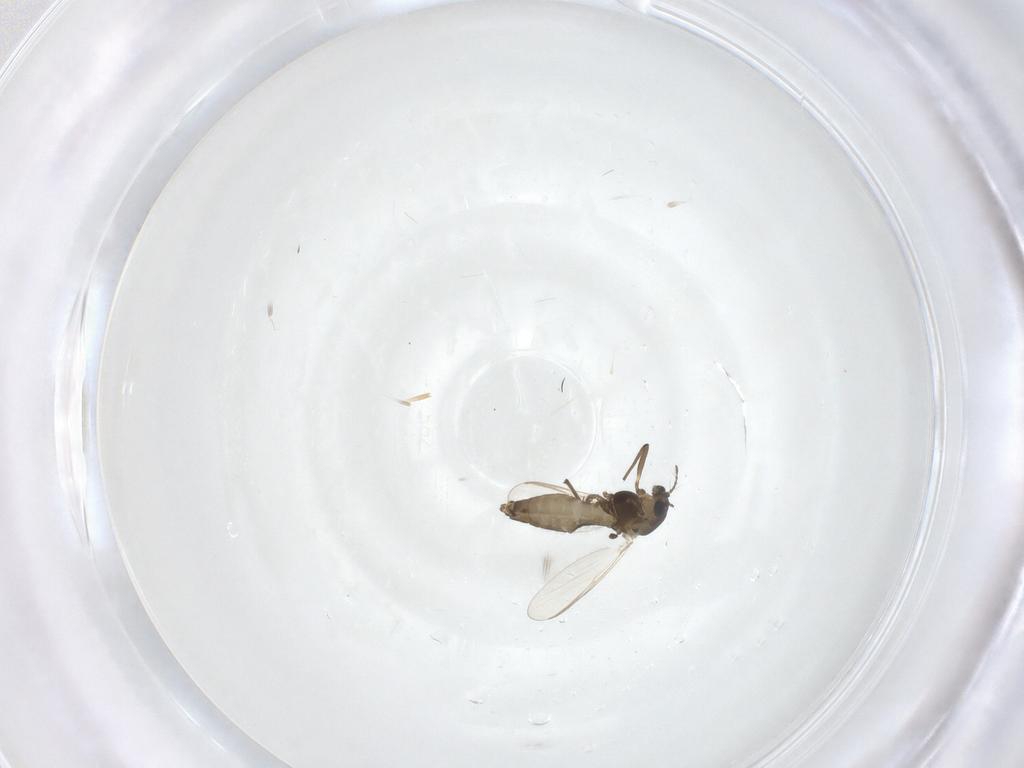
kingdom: Animalia
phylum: Arthropoda
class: Insecta
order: Diptera
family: Chironomidae
